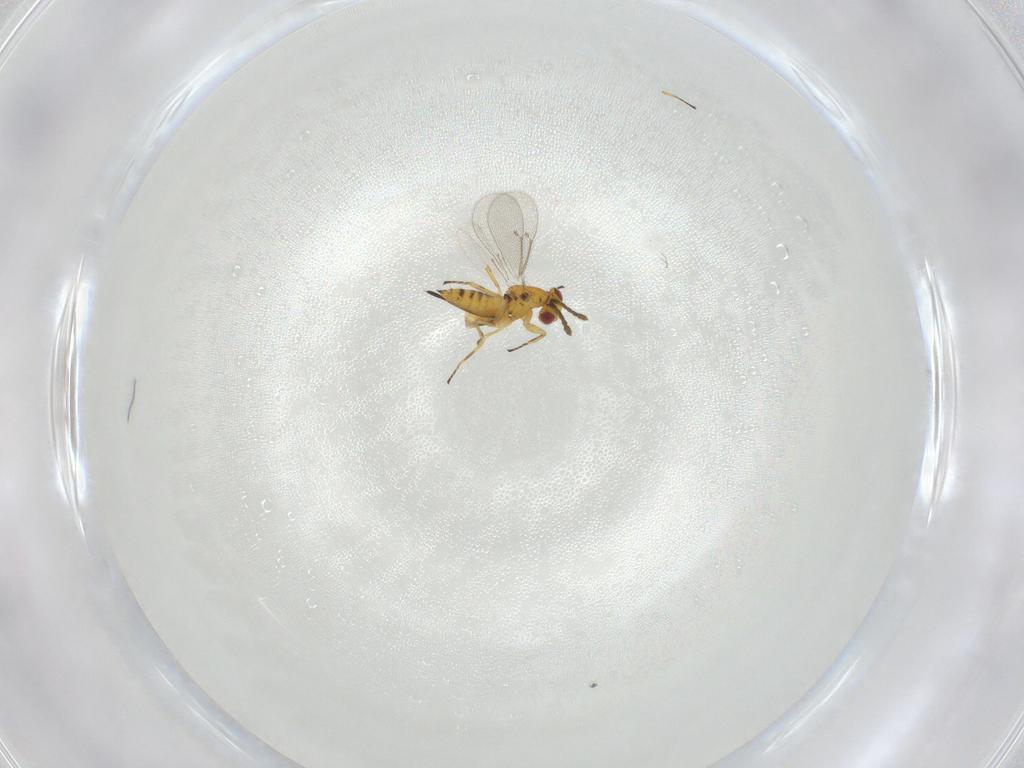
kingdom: Animalia
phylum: Arthropoda
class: Insecta
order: Hymenoptera
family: Eulophidae
